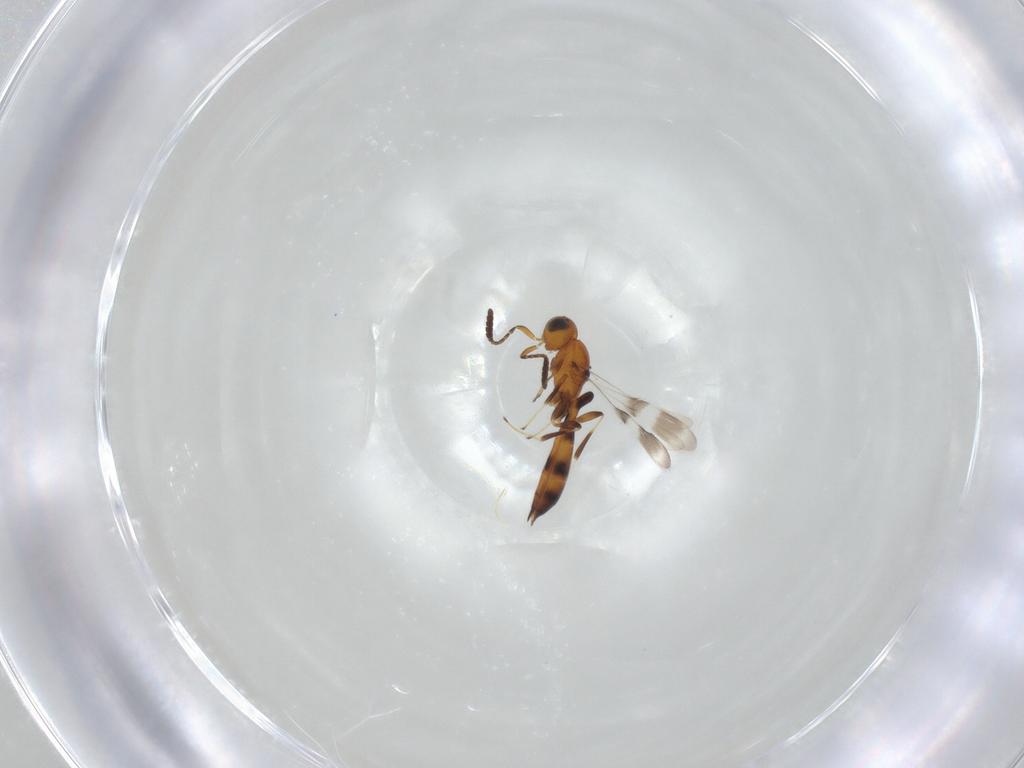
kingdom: Animalia
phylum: Arthropoda
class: Insecta
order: Hymenoptera
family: Scelionidae
